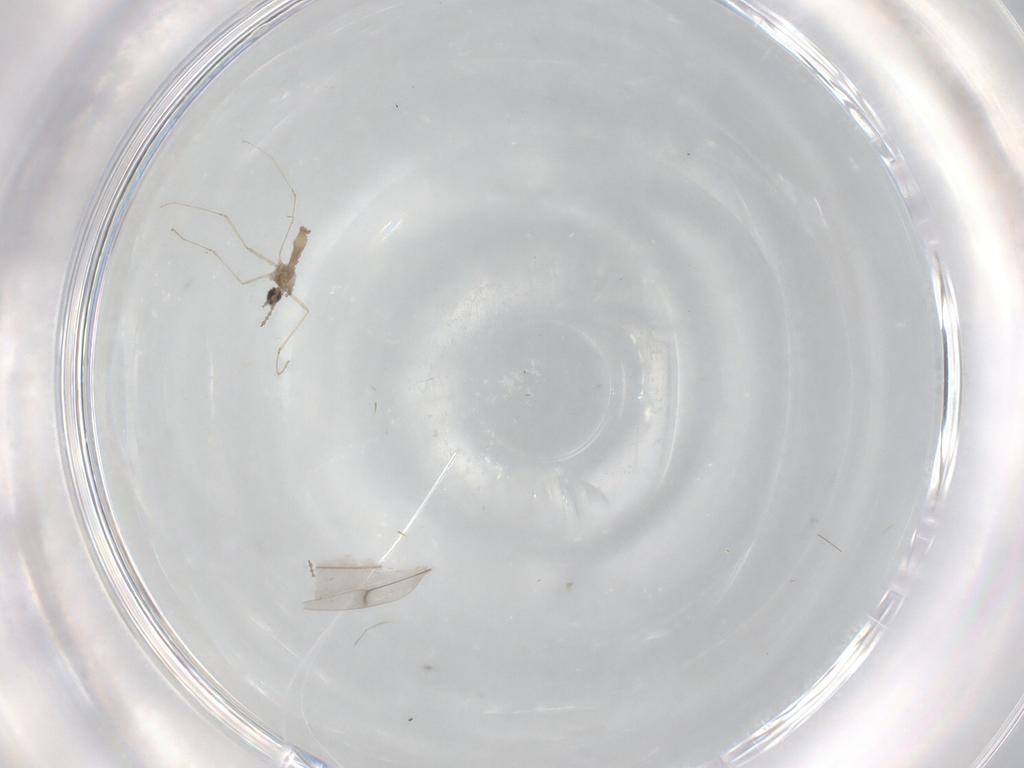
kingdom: Animalia
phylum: Arthropoda
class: Insecta
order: Diptera
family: Cecidomyiidae
